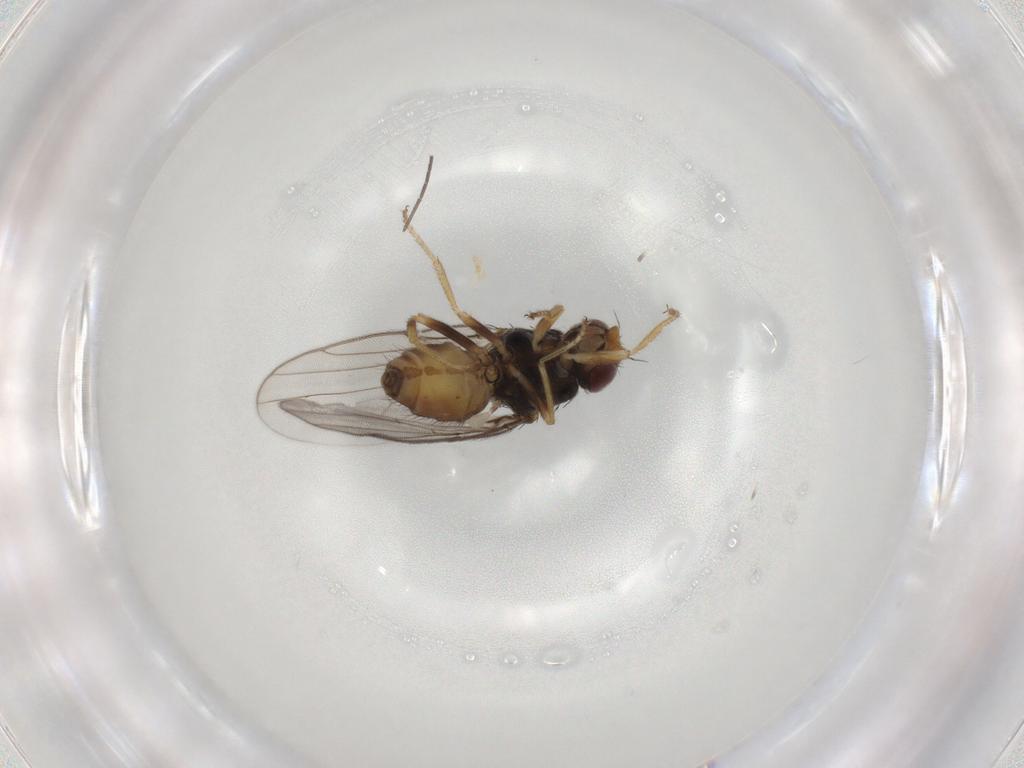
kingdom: Animalia
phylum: Arthropoda
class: Insecta
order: Diptera
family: Chloropidae
